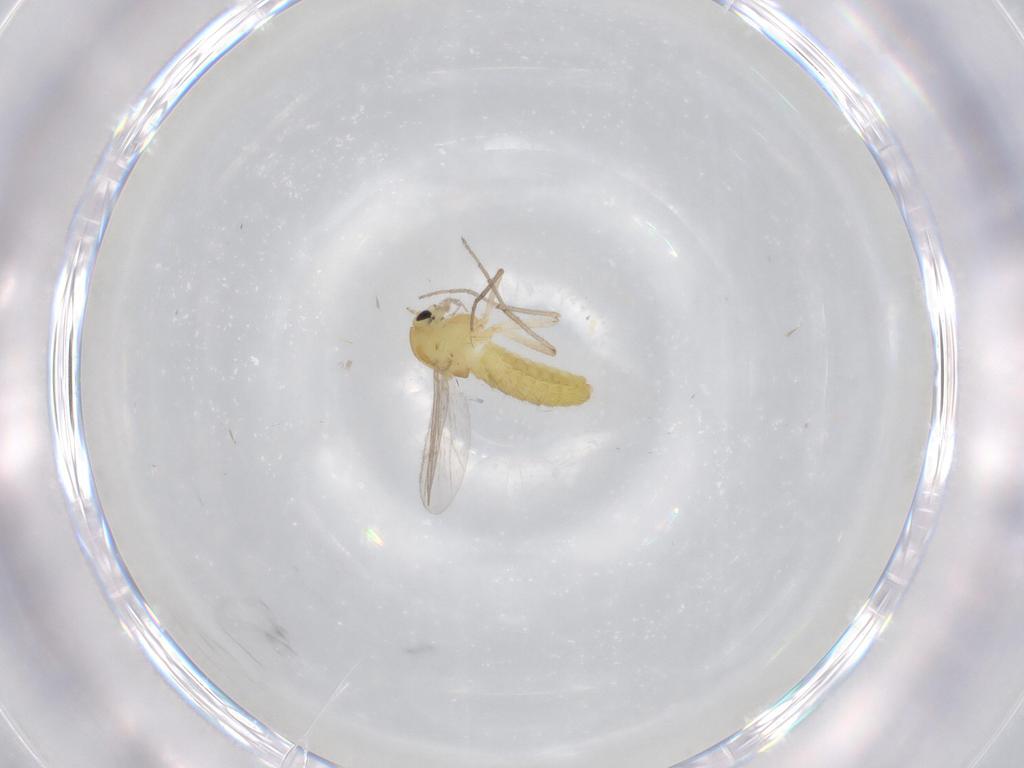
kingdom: Animalia
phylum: Arthropoda
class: Insecta
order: Diptera
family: Chironomidae
